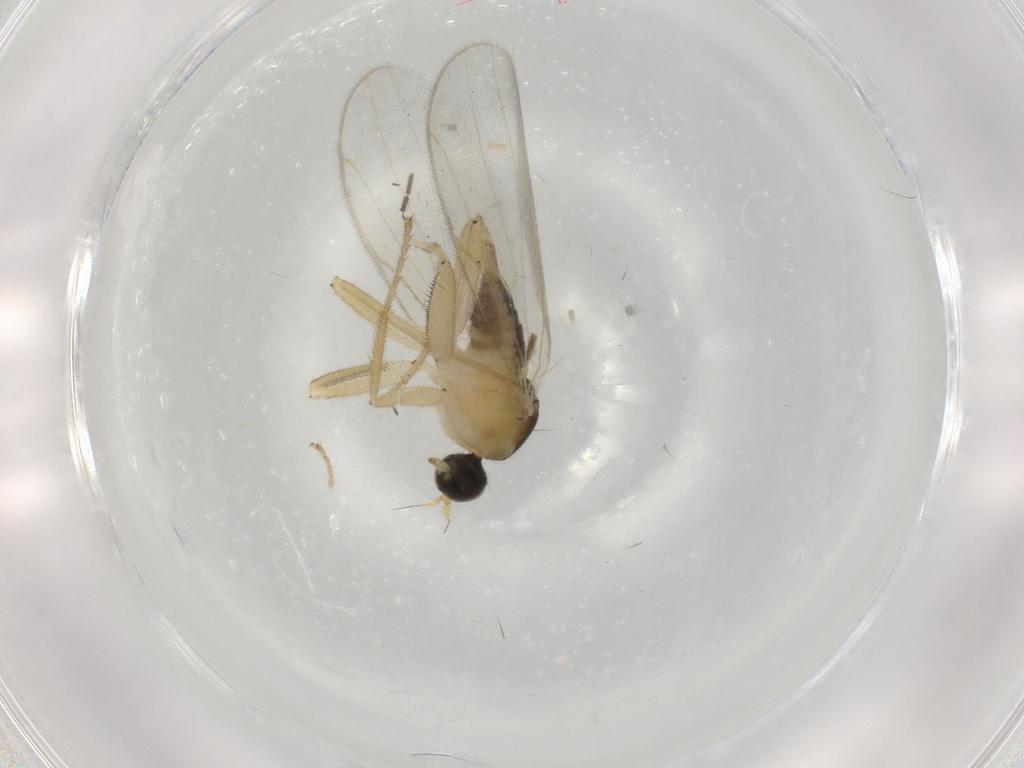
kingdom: Animalia
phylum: Arthropoda
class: Insecta
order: Diptera
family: Hybotidae
